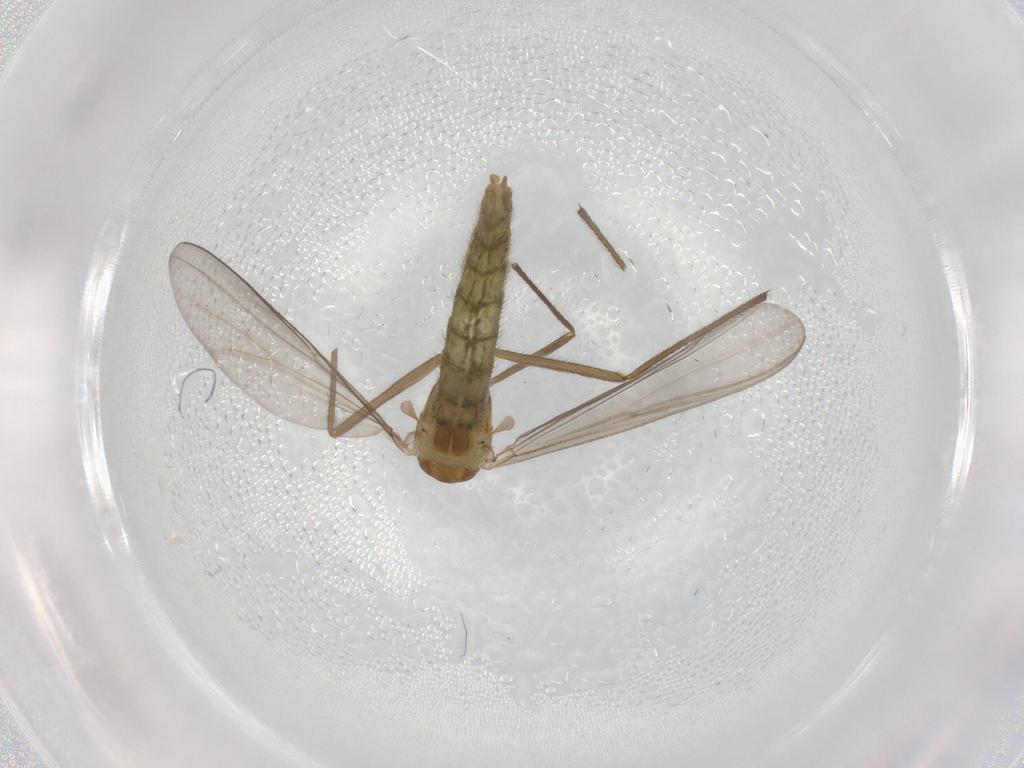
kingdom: Animalia
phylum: Arthropoda
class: Insecta
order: Diptera
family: Chironomidae
